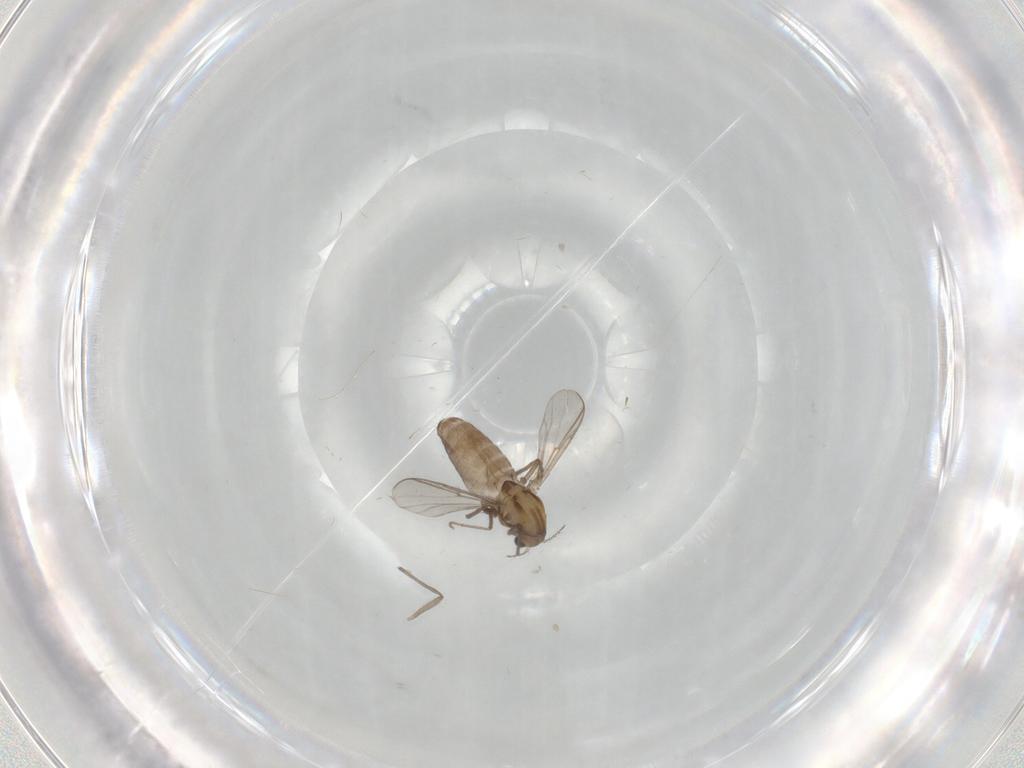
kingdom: Animalia
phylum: Arthropoda
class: Insecta
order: Diptera
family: Chironomidae
